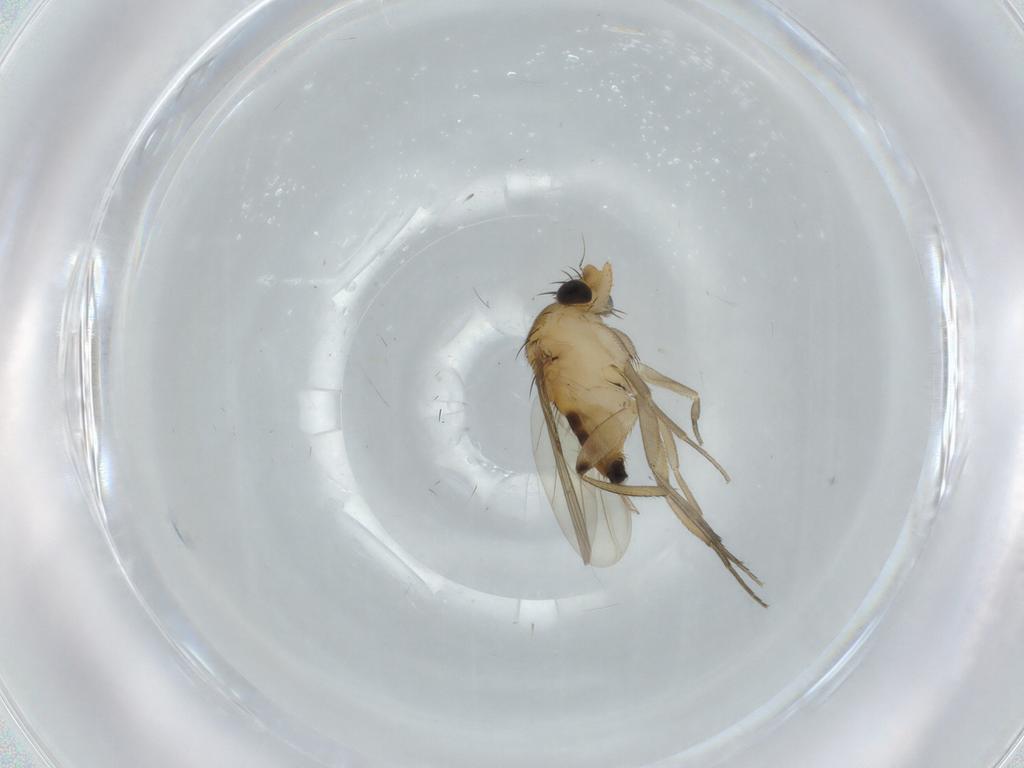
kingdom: Animalia
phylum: Arthropoda
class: Insecta
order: Diptera
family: Phoridae
